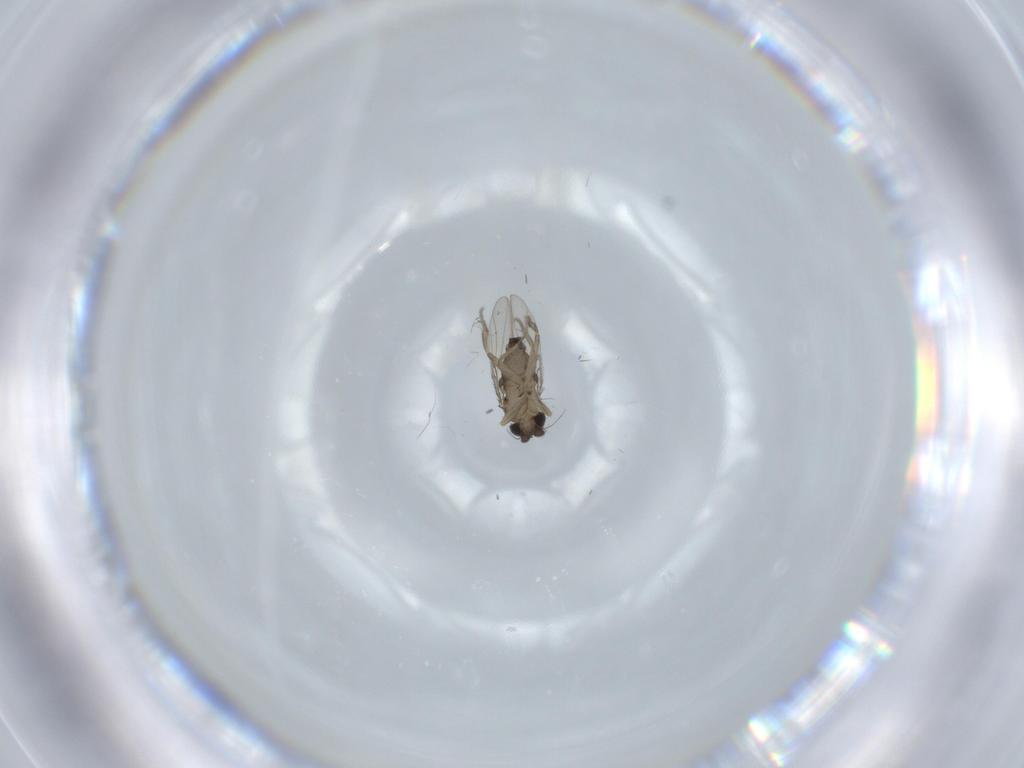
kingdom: Animalia
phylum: Arthropoda
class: Insecta
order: Diptera
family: Phoridae
